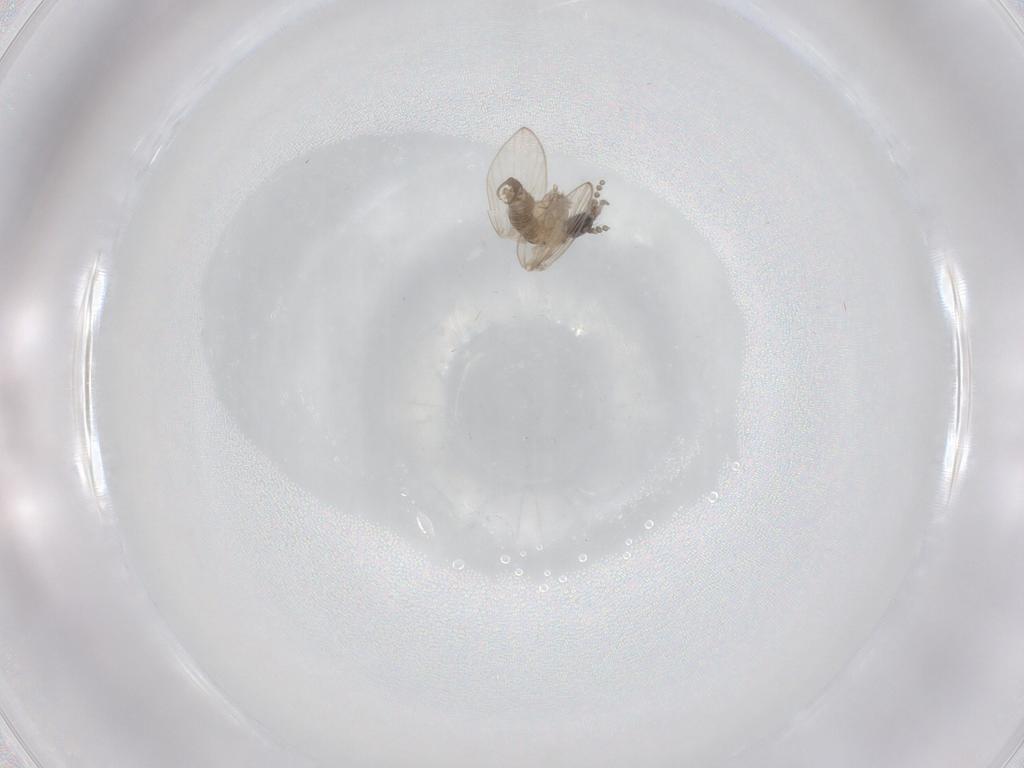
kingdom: Animalia
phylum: Arthropoda
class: Insecta
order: Diptera
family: Psychodidae
